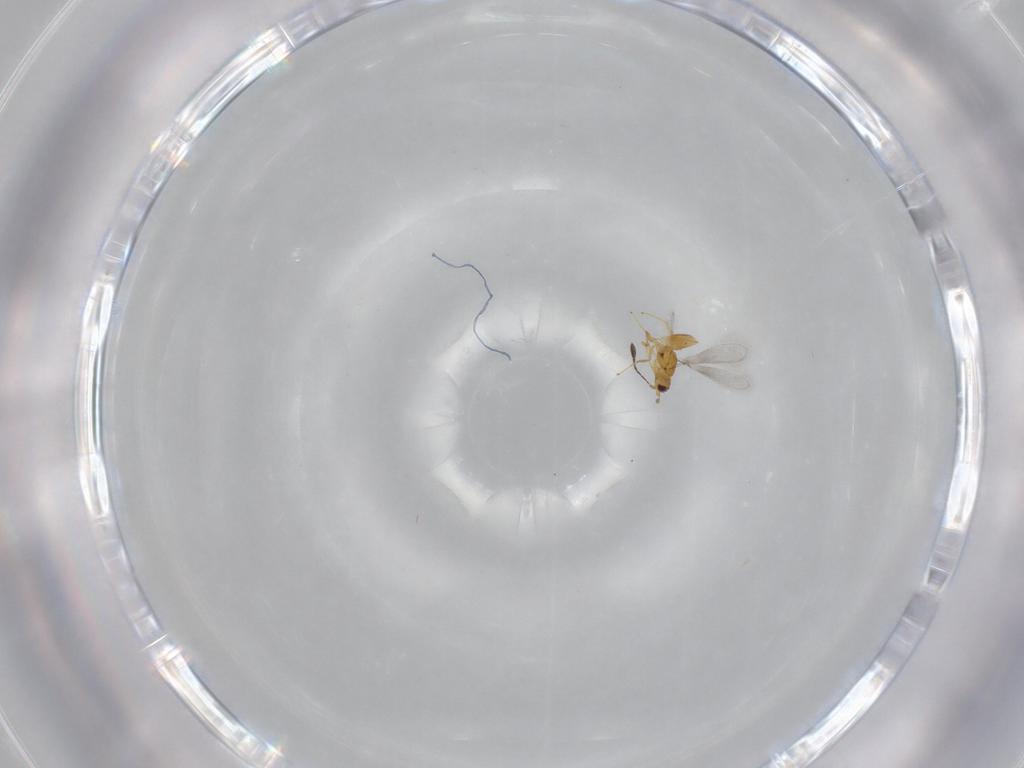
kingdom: Animalia
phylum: Arthropoda
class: Insecta
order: Hymenoptera
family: Mymaridae
